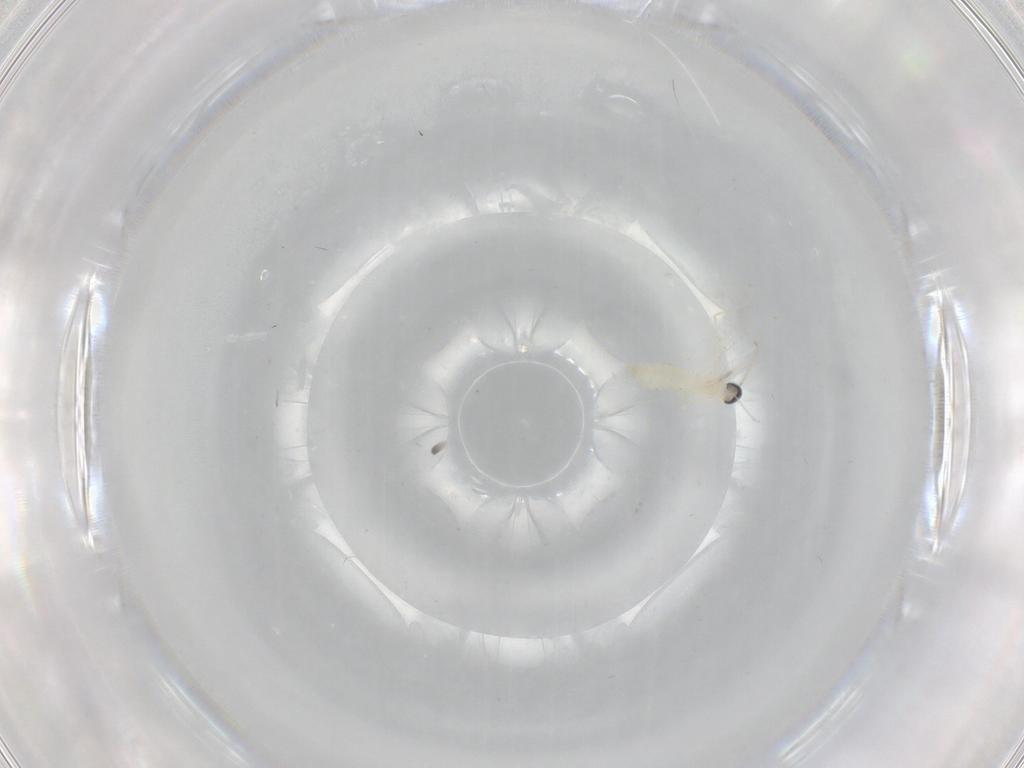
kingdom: Animalia
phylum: Arthropoda
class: Insecta
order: Diptera
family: Cecidomyiidae
